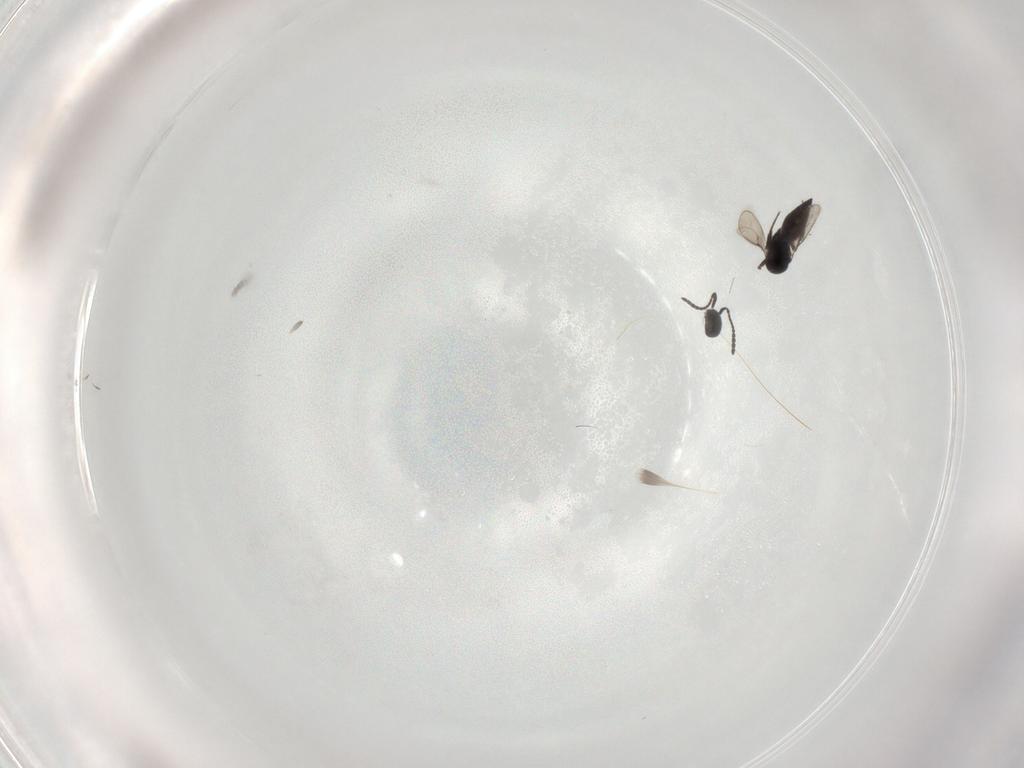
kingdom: Animalia
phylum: Arthropoda
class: Insecta
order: Hymenoptera
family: Scelionidae
